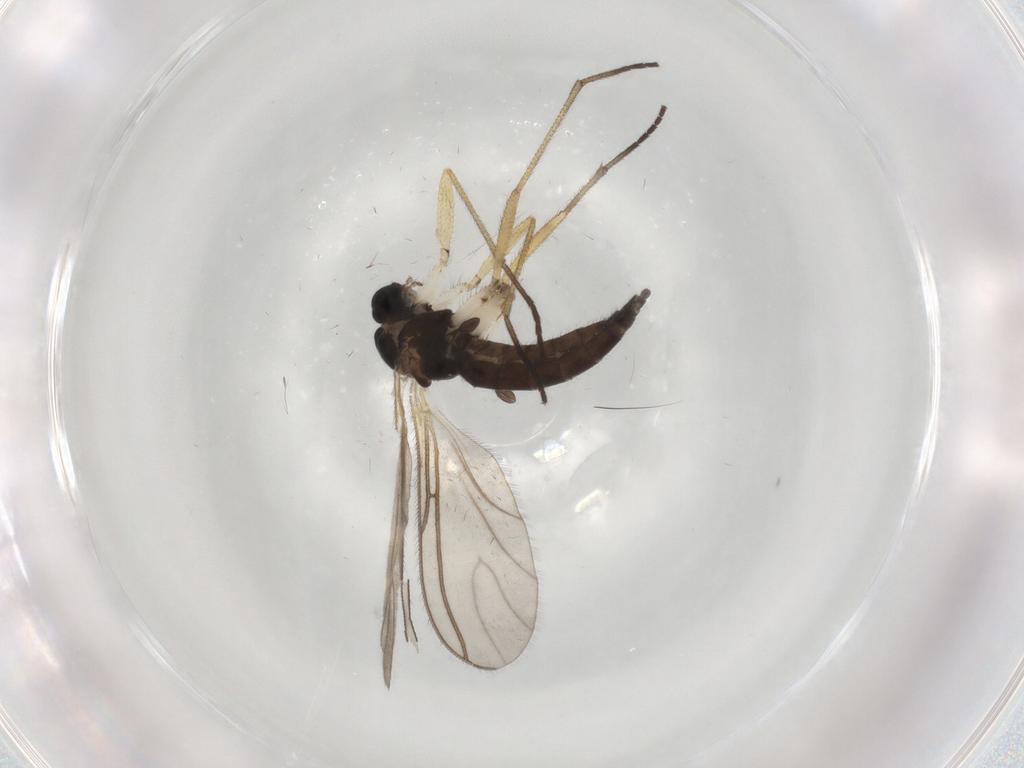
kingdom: Animalia
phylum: Arthropoda
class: Insecta
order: Diptera
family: Sciaridae
